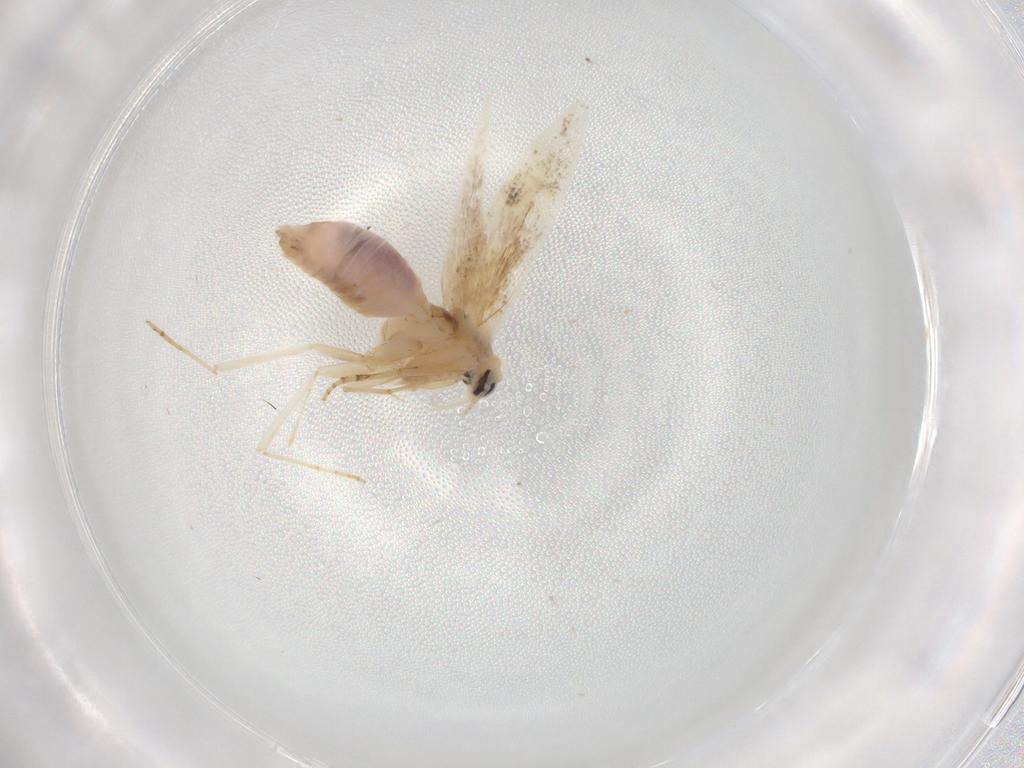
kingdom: Animalia
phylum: Arthropoda
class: Insecta
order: Lepidoptera
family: Bucculatricidae
